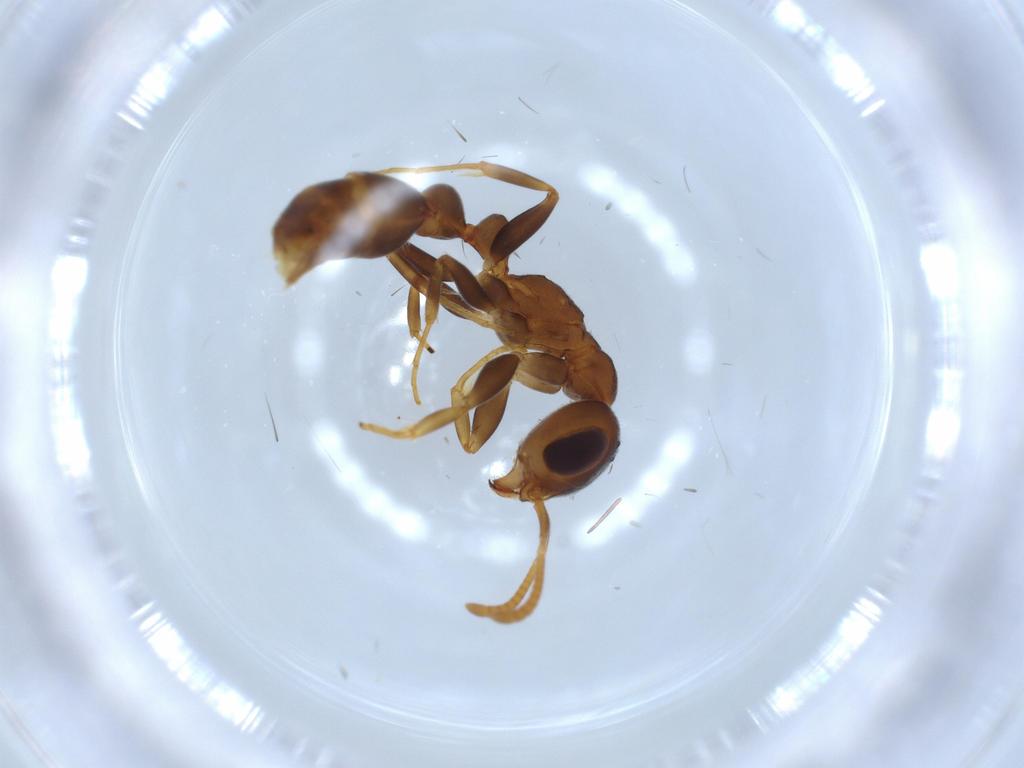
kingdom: Animalia
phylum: Arthropoda
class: Insecta
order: Hymenoptera
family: Formicidae
